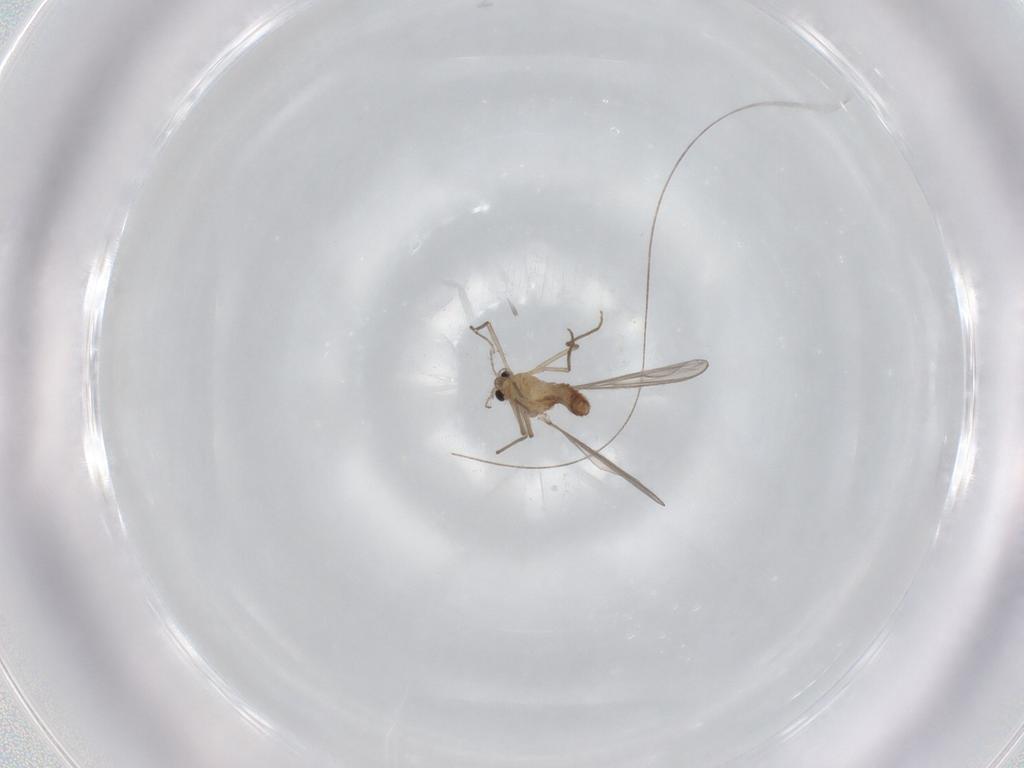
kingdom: Animalia
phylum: Arthropoda
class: Insecta
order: Diptera
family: Chironomidae
